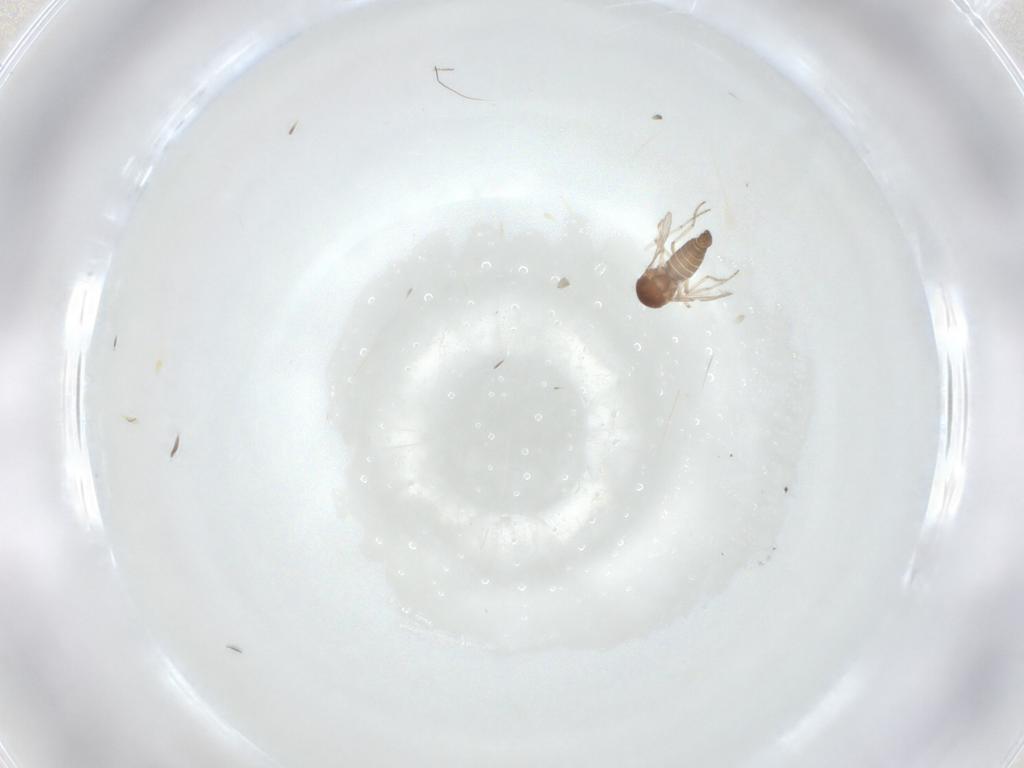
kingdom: Animalia
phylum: Arthropoda
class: Insecta
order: Diptera
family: Ceratopogonidae
